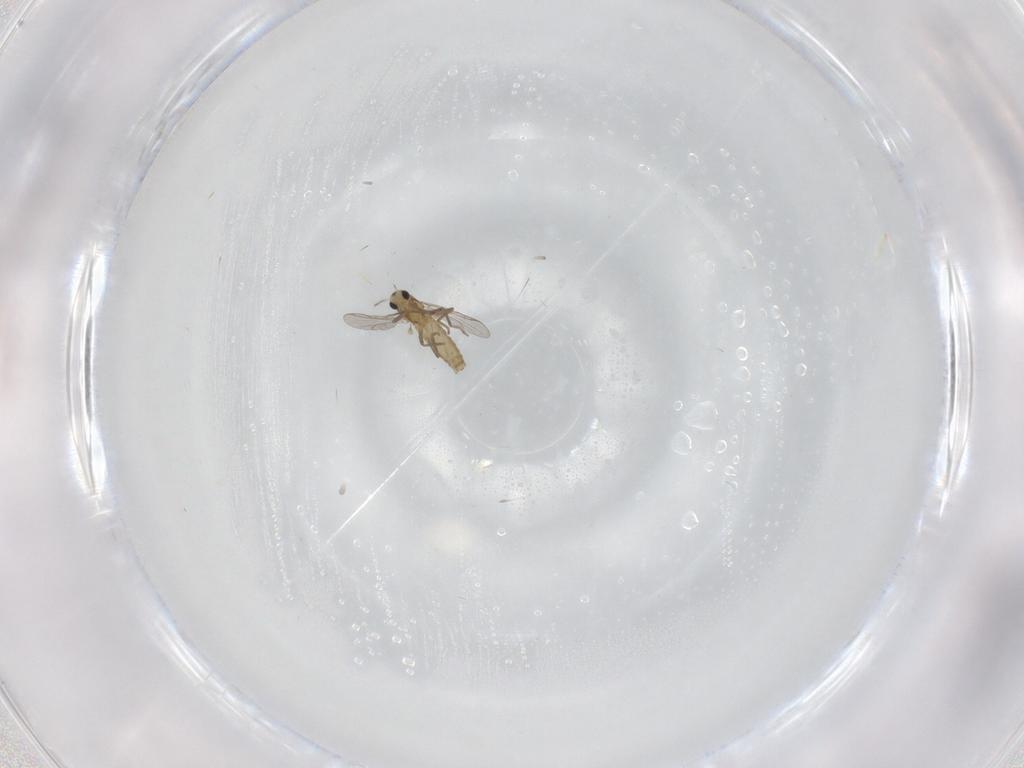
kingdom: Animalia
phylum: Arthropoda
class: Insecta
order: Diptera
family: Chironomidae
